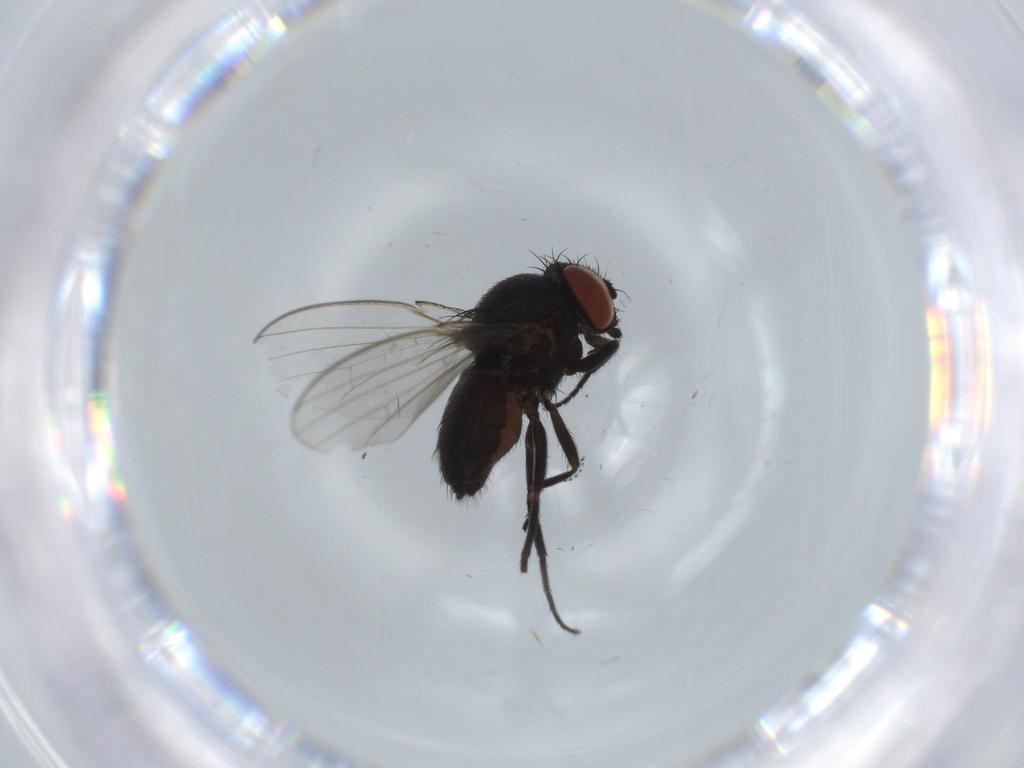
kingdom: Animalia
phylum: Arthropoda
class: Insecta
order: Diptera
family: Milichiidae
